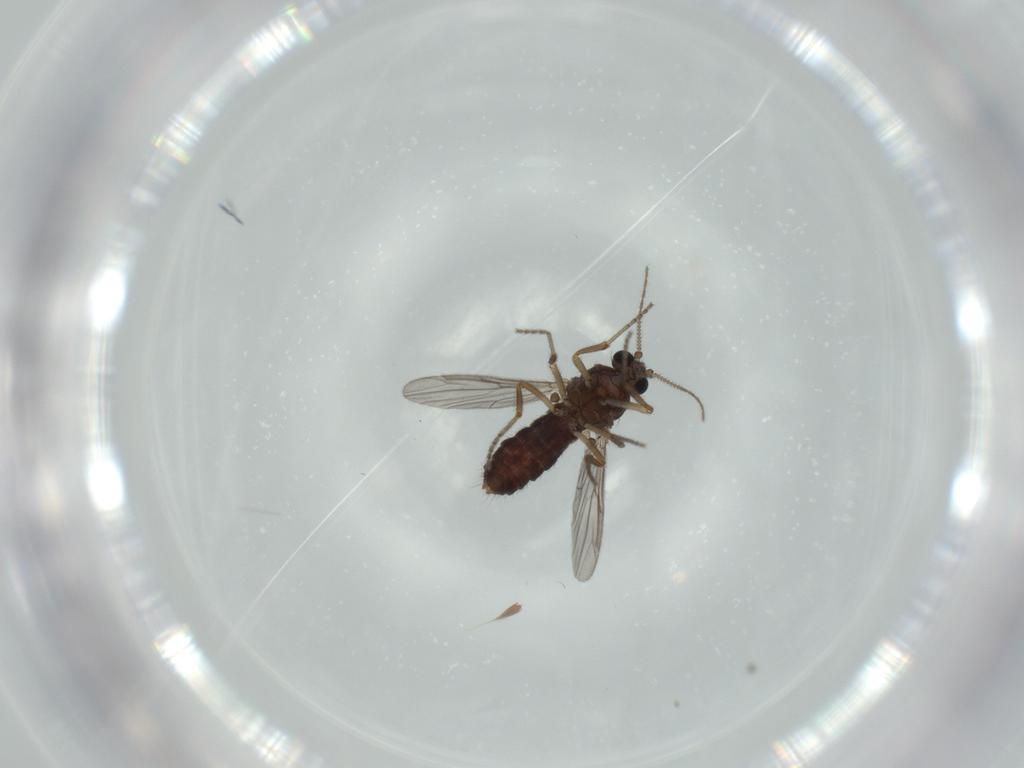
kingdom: Animalia
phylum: Arthropoda
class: Insecta
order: Diptera
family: Ceratopogonidae
